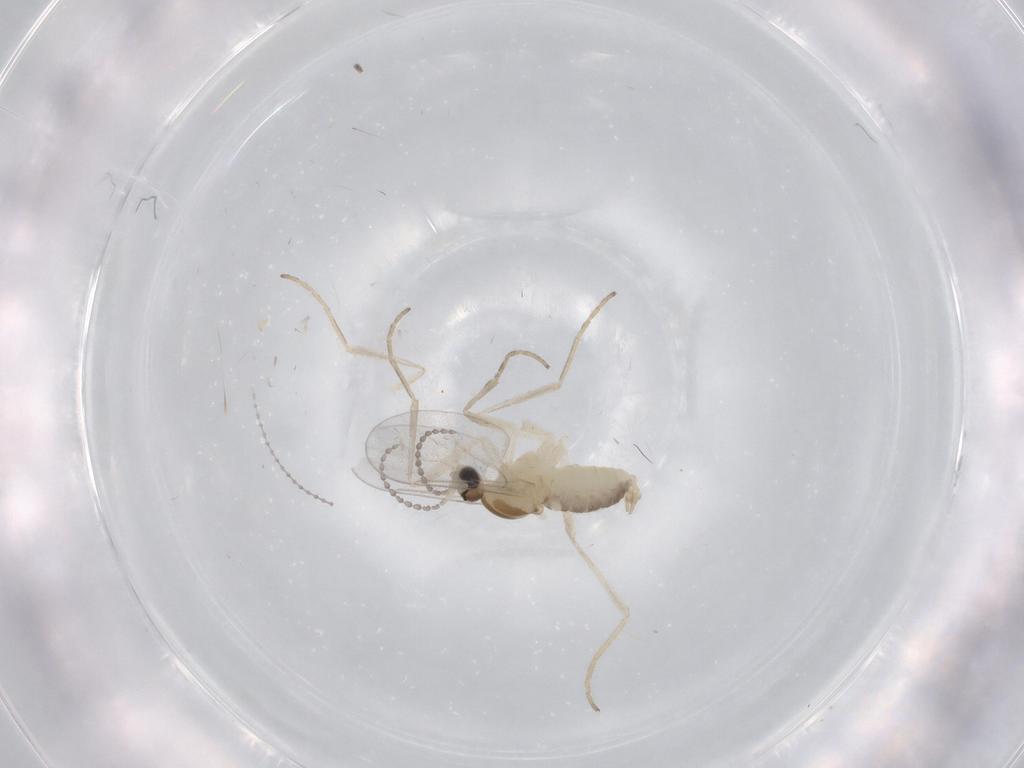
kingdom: Animalia
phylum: Arthropoda
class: Insecta
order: Diptera
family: Cecidomyiidae
